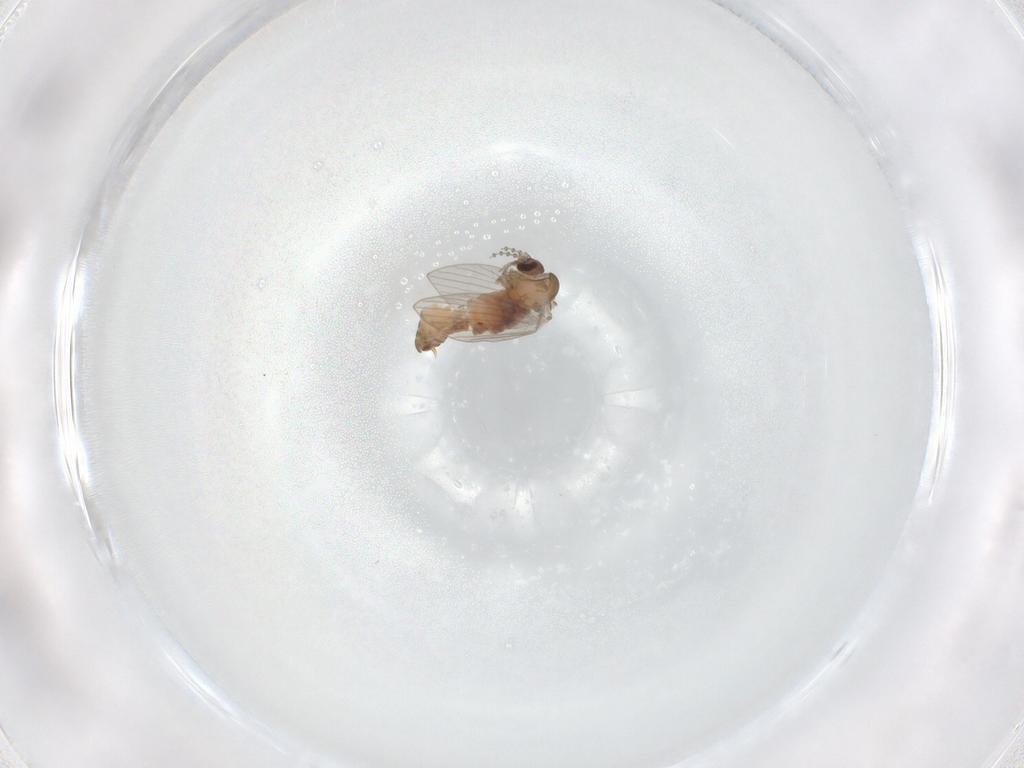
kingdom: Animalia
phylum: Arthropoda
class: Insecta
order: Diptera
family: Psychodidae
